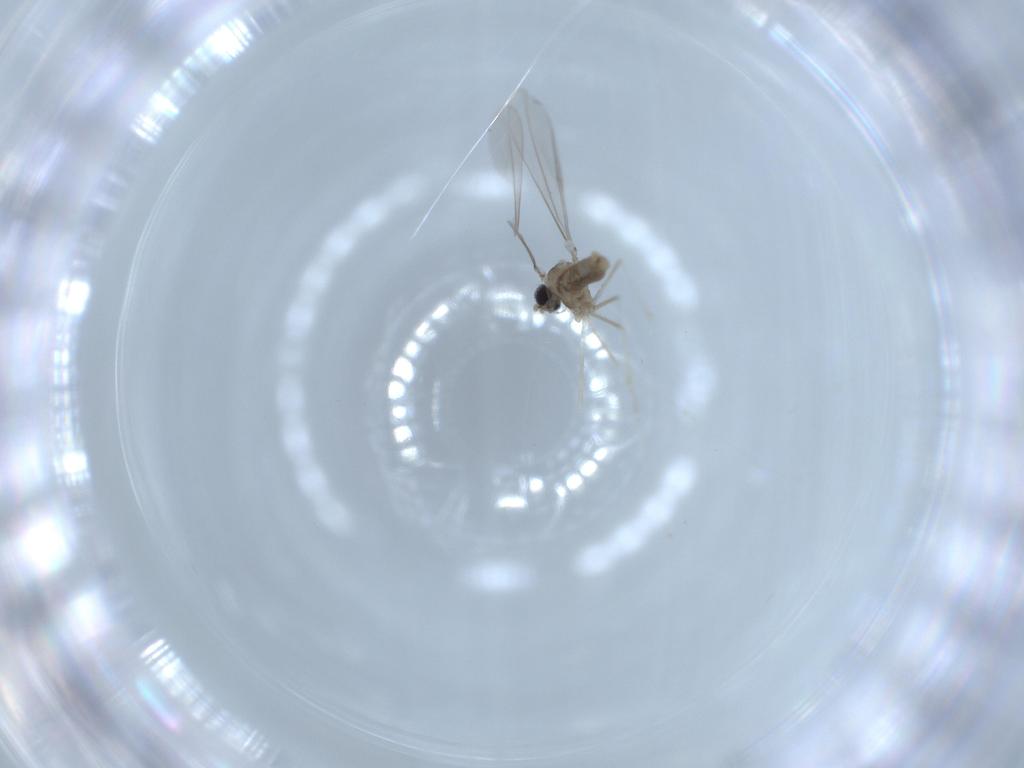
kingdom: Animalia
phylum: Arthropoda
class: Insecta
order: Diptera
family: Cecidomyiidae
